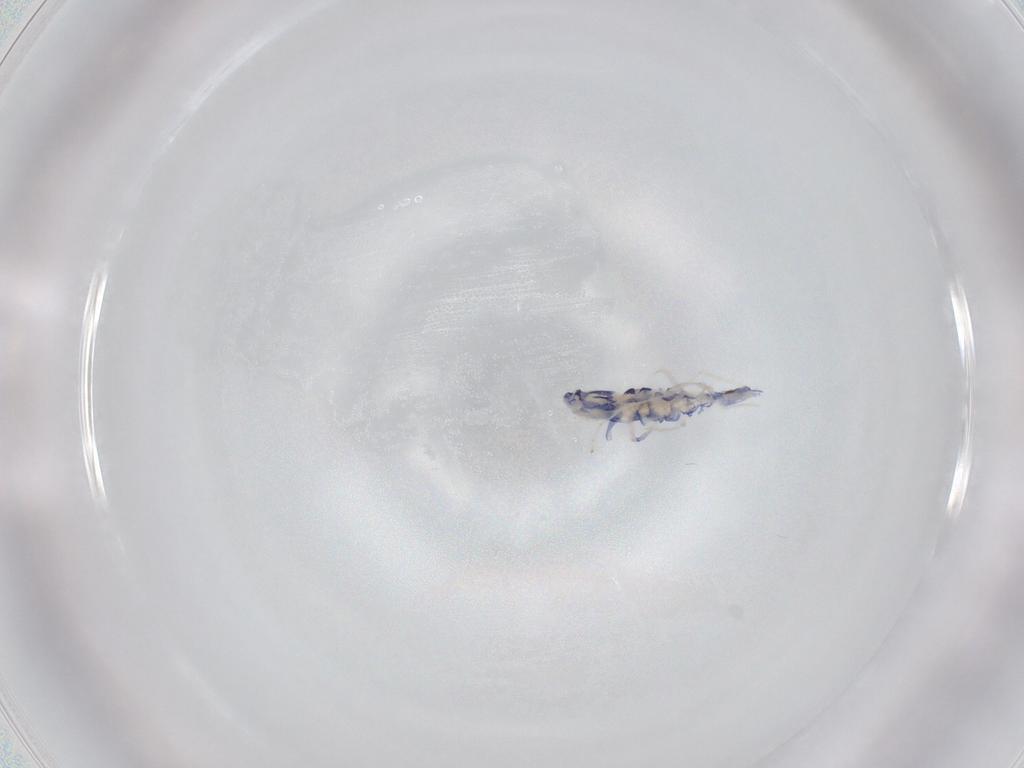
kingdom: Animalia
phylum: Arthropoda
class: Collembola
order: Entomobryomorpha
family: Entomobryidae
